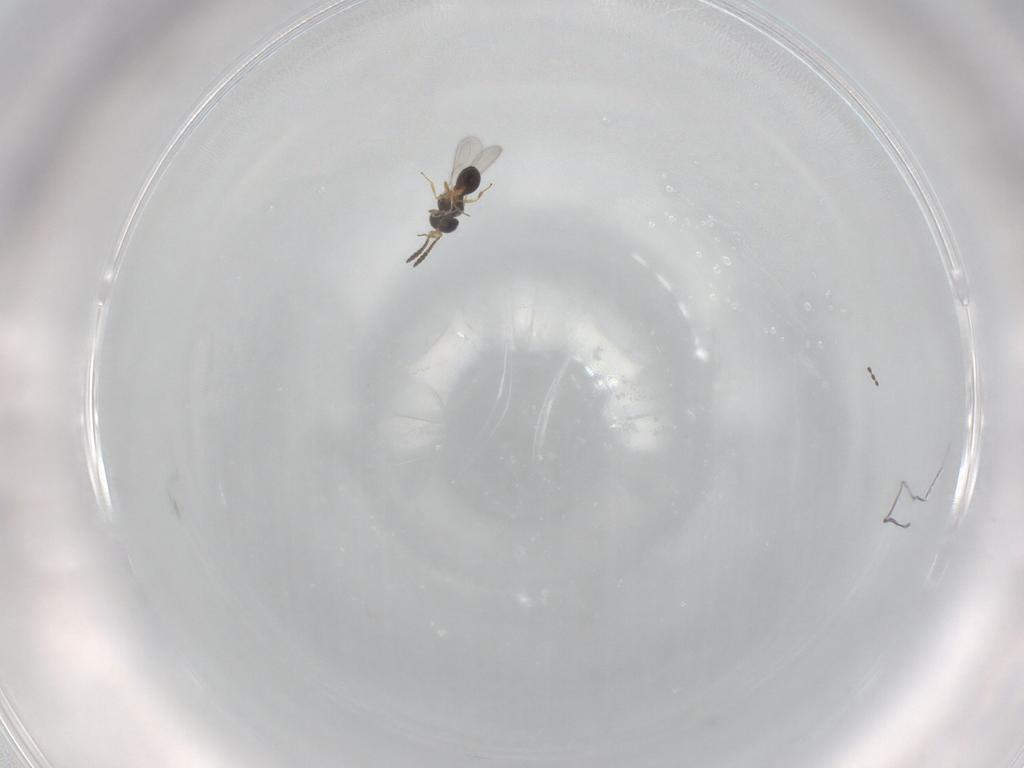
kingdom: Animalia
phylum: Arthropoda
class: Insecta
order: Hymenoptera
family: Scelionidae
